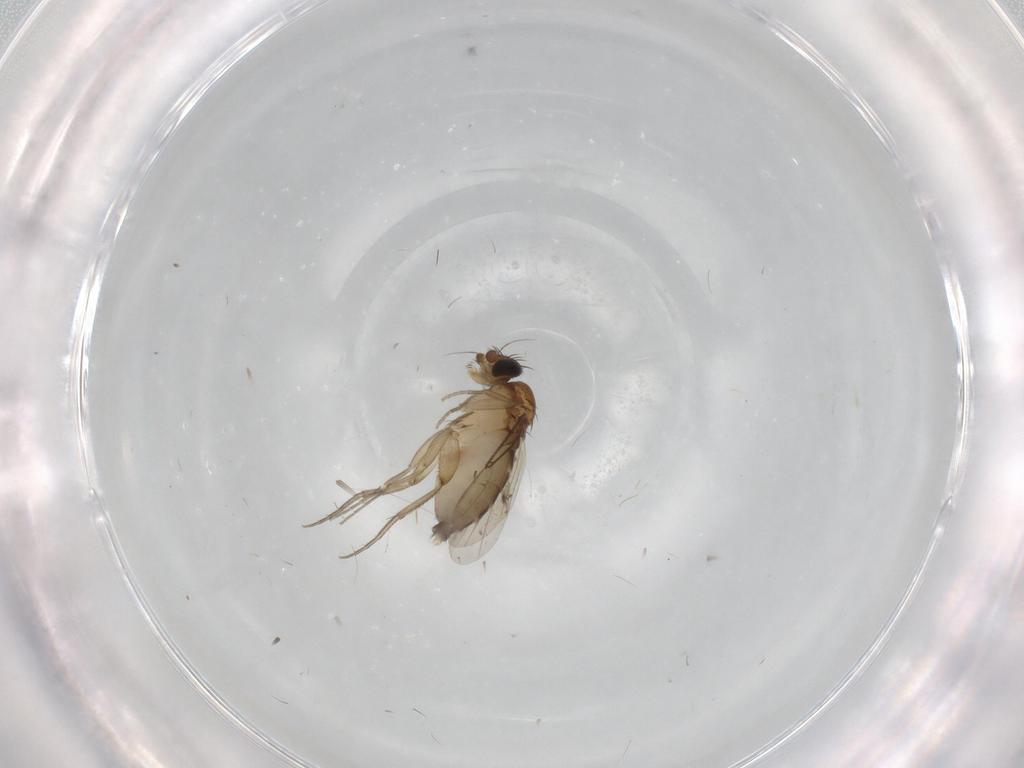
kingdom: Animalia
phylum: Arthropoda
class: Insecta
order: Diptera
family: Phoridae
